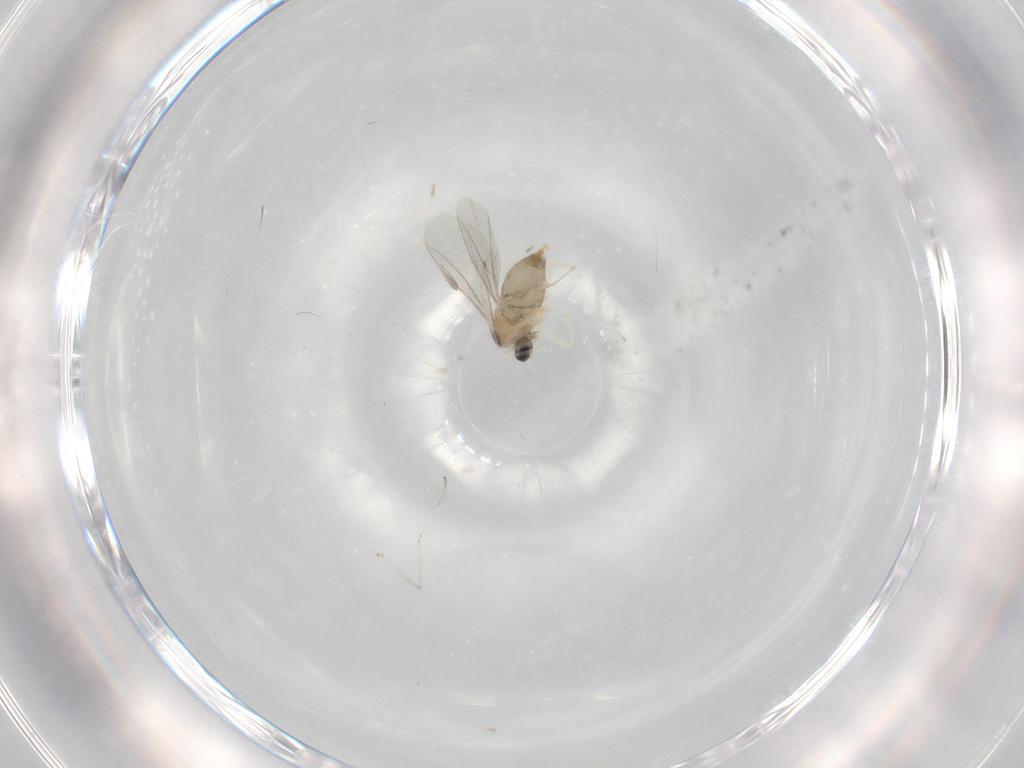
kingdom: Animalia
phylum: Arthropoda
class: Insecta
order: Diptera
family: Cecidomyiidae
